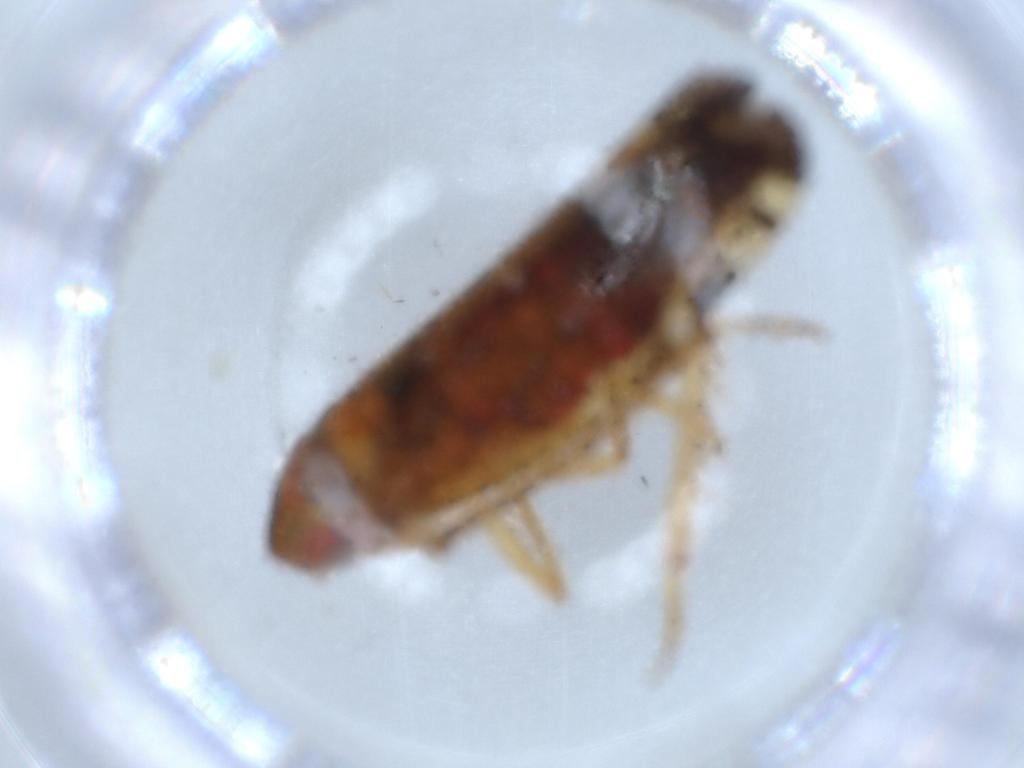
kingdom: Animalia
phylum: Arthropoda
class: Insecta
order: Hemiptera
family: Cicadellidae
